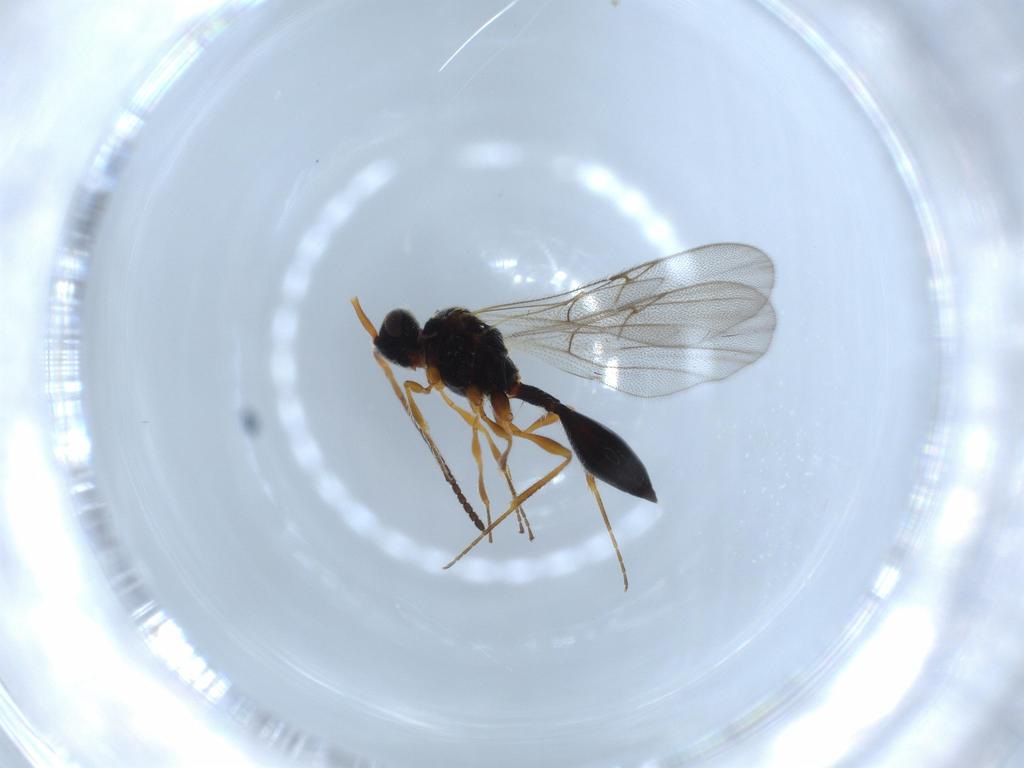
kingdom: Animalia
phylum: Arthropoda
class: Insecta
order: Hymenoptera
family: Diapriidae
